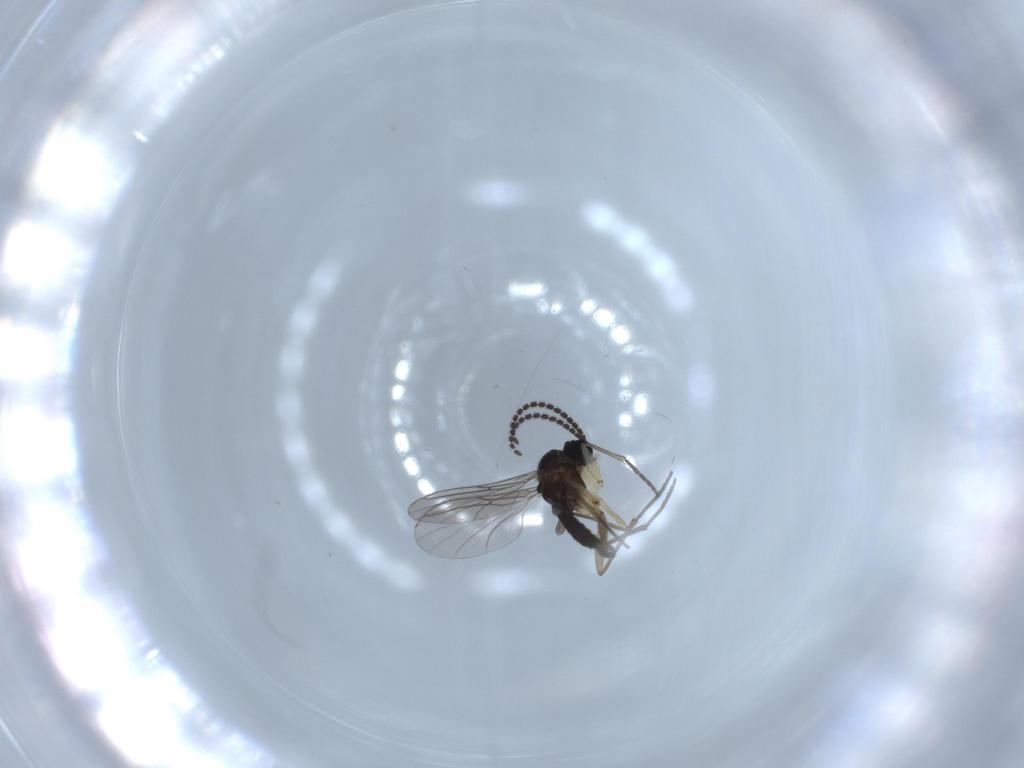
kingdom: Animalia
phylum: Arthropoda
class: Insecta
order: Diptera
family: Sciaridae
